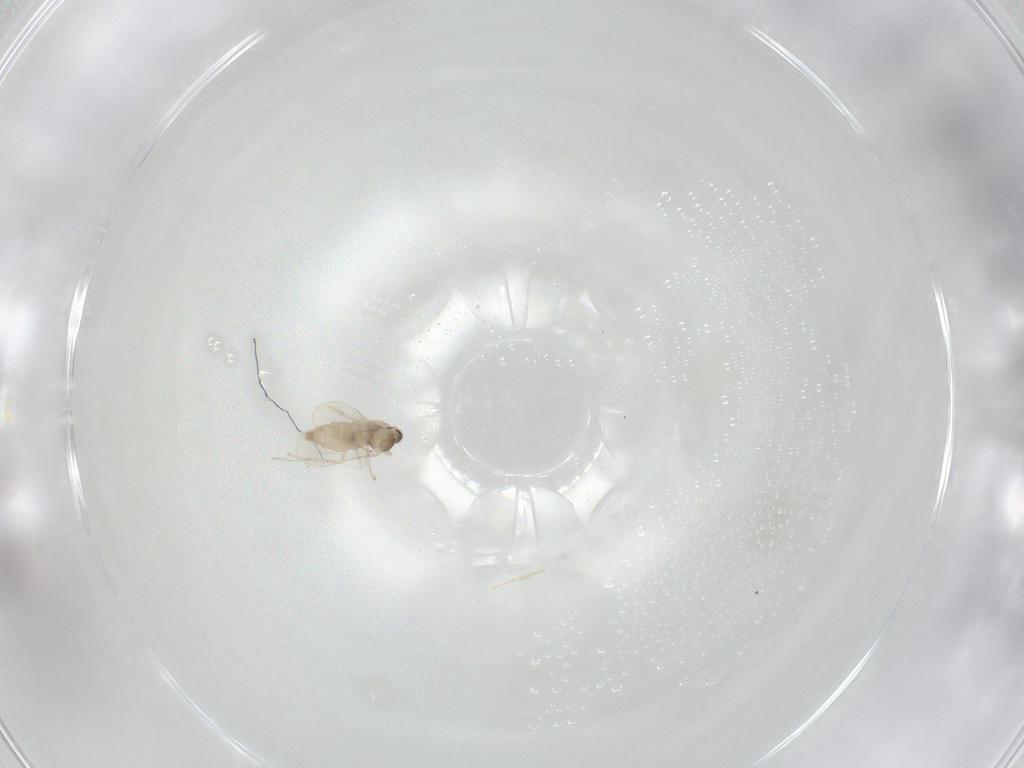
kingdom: Animalia
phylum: Arthropoda
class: Insecta
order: Diptera
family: Cecidomyiidae
